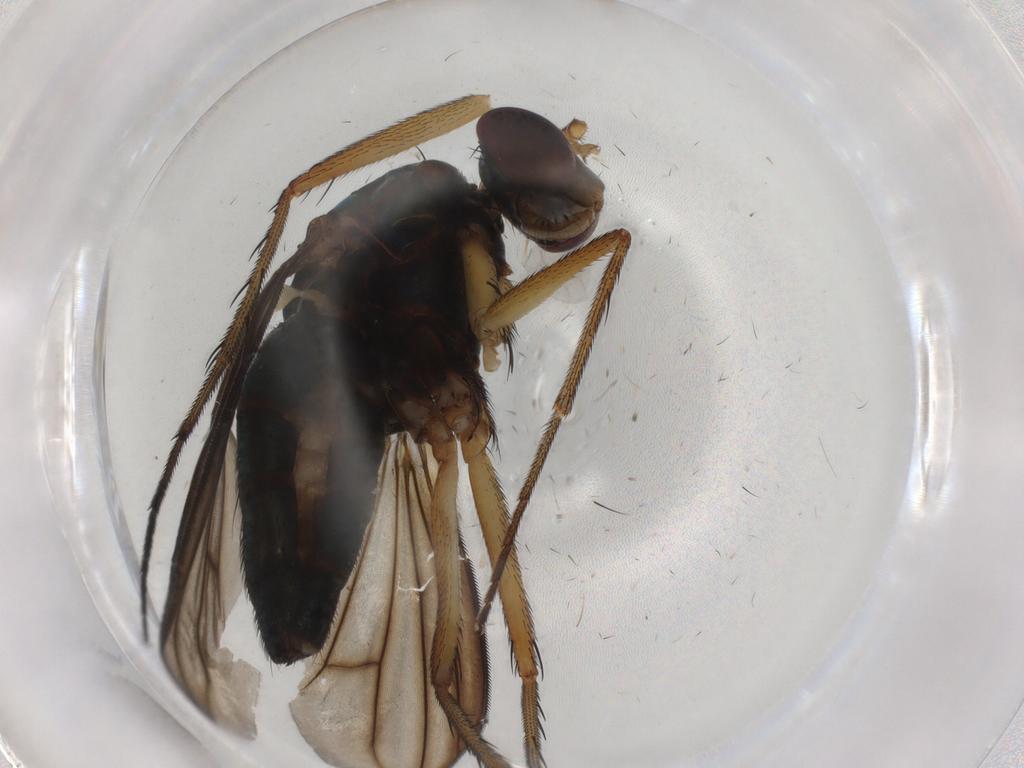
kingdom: Animalia
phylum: Arthropoda
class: Insecta
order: Diptera
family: Dolichopodidae
